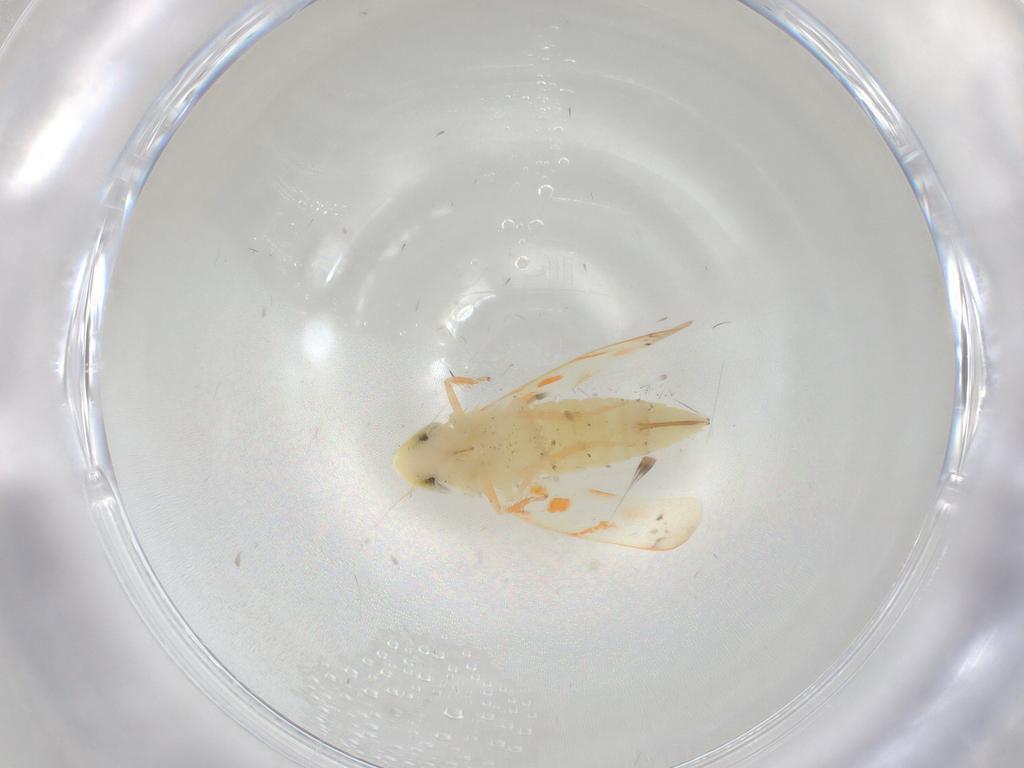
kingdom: Animalia
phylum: Arthropoda
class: Insecta
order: Hemiptera
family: Cicadellidae
